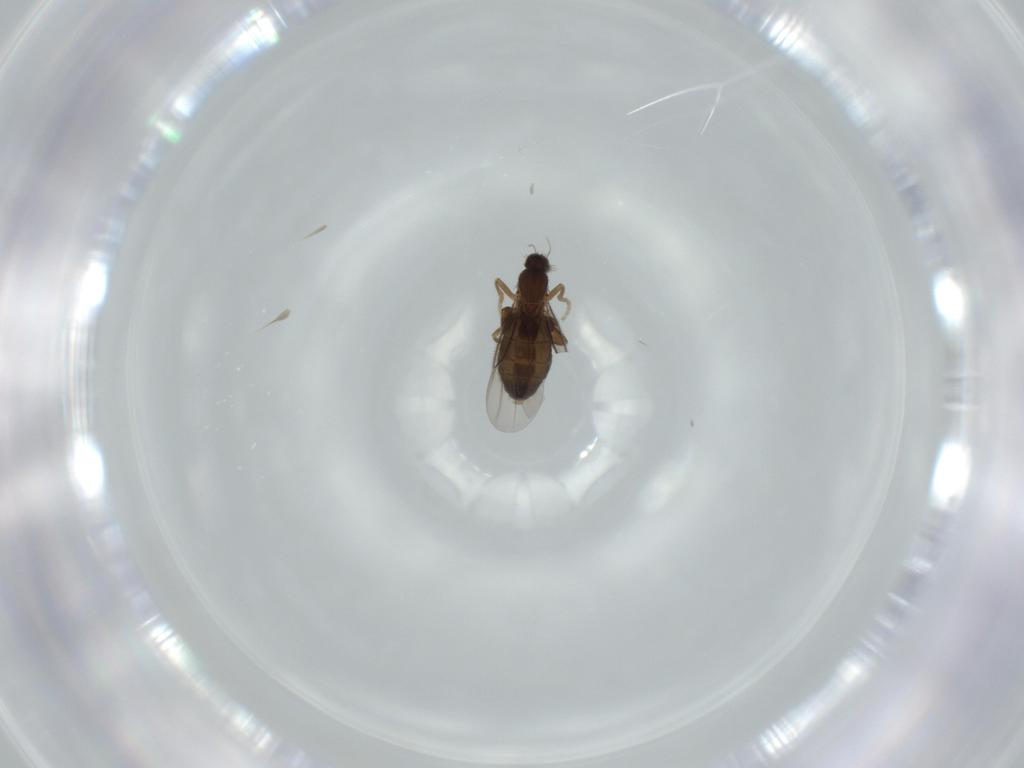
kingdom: Animalia
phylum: Arthropoda
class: Insecta
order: Diptera
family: Phoridae
